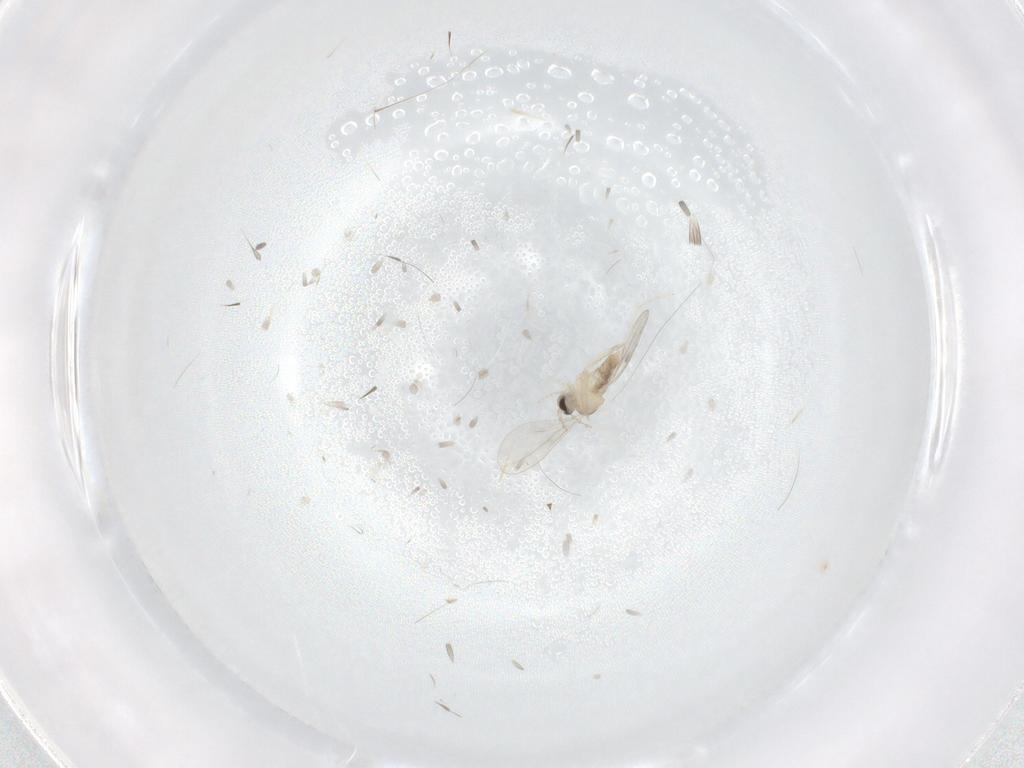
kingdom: Animalia
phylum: Arthropoda
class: Insecta
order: Diptera
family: Cecidomyiidae
